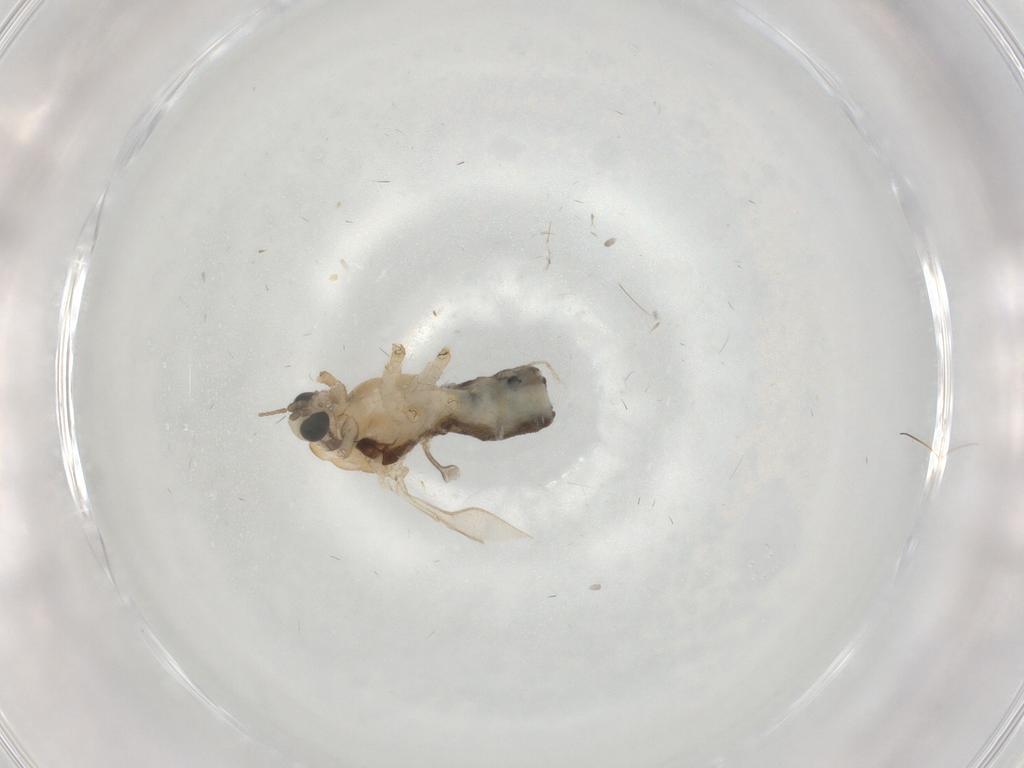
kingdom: Animalia
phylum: Arthropoda
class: Insecta
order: Diptera
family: Limoniidae
